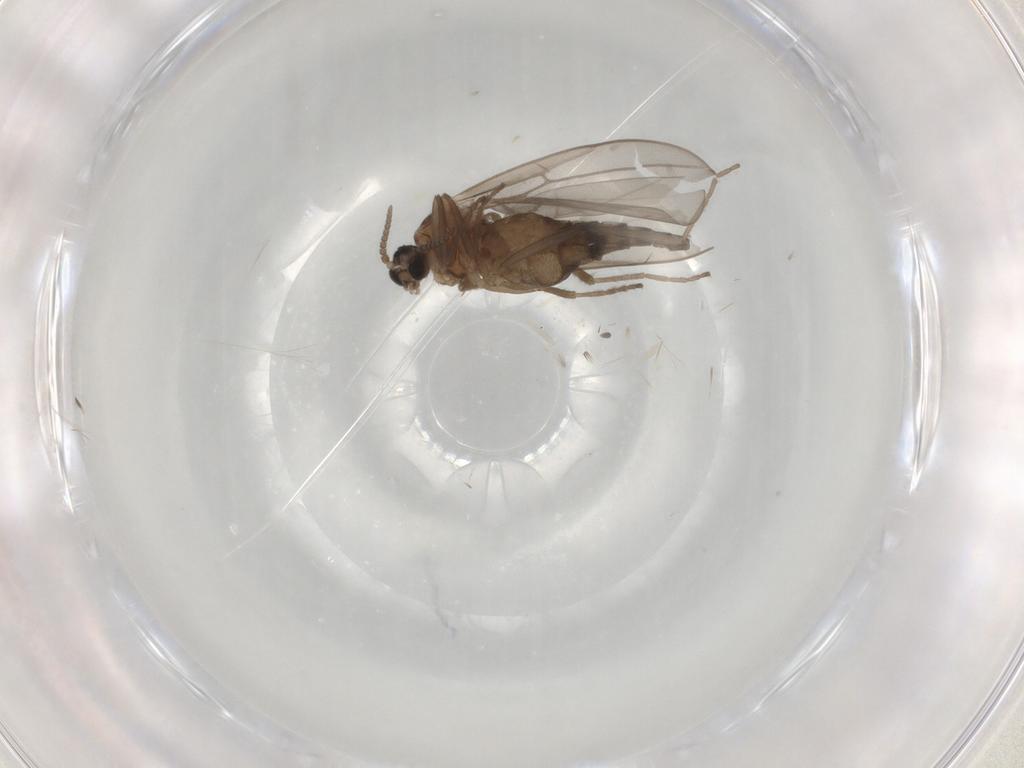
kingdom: Animalia
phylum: Arthropoda
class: Insecta
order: Diptera
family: Cecidomyiidae
